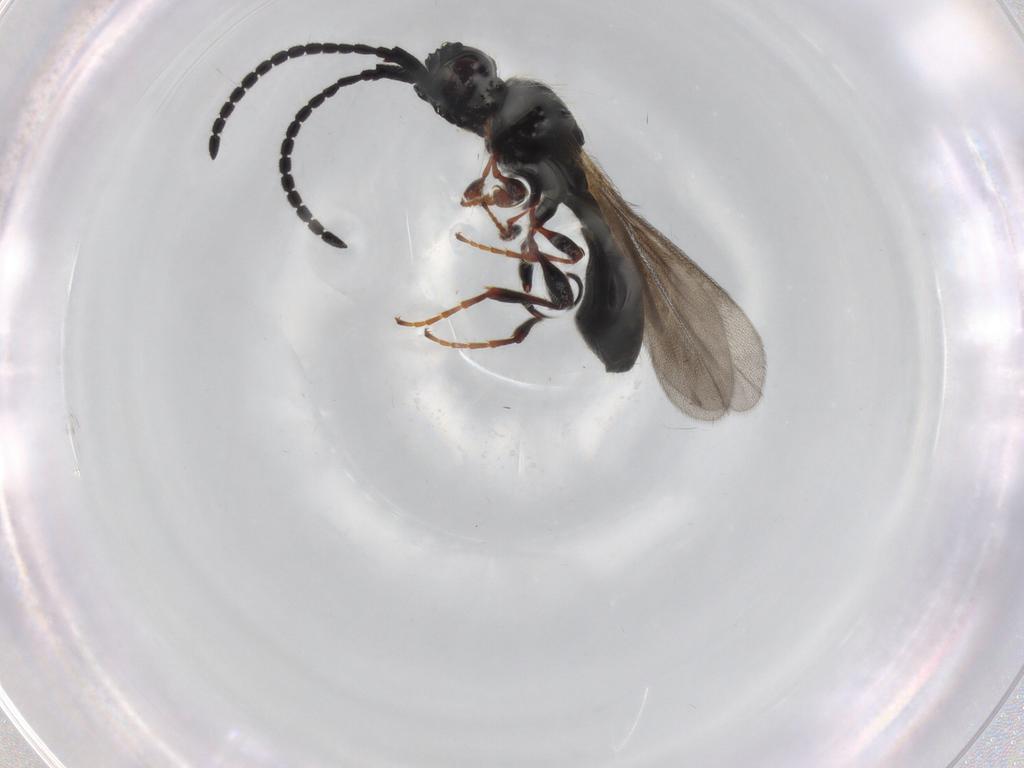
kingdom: Animalia
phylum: Arthropoda
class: Insecta
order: Hymenoptera
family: Diapriidae
